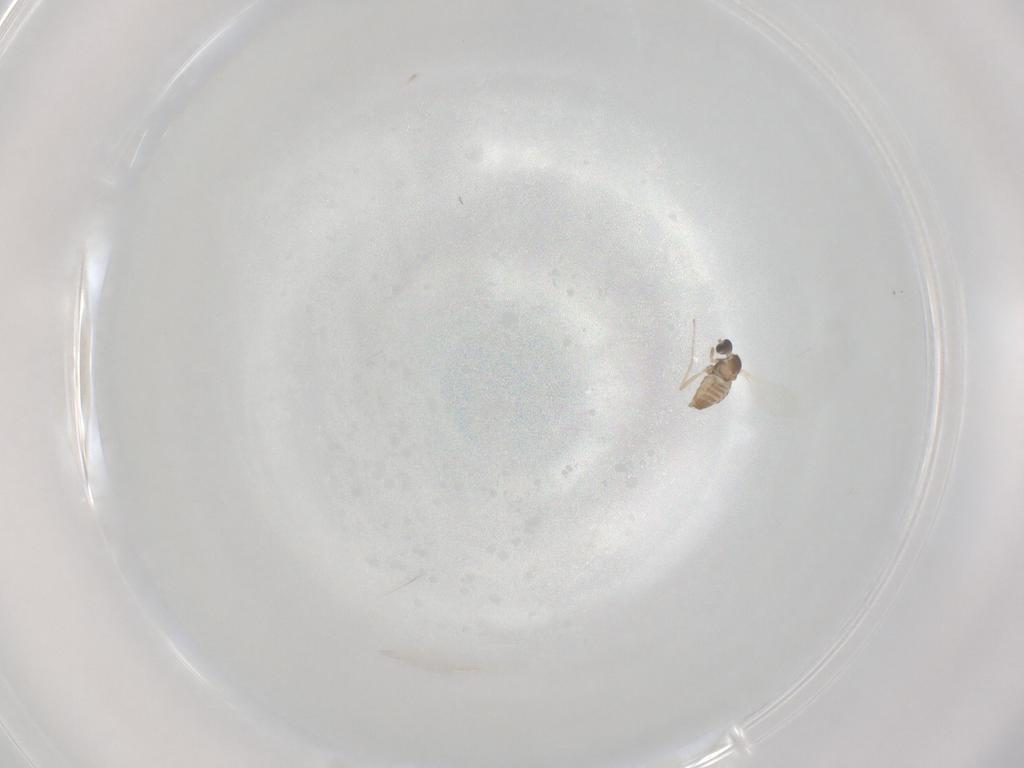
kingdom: Animalia
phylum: Arthropoda
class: Insecta
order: Diptera
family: Cecidomyiidae
